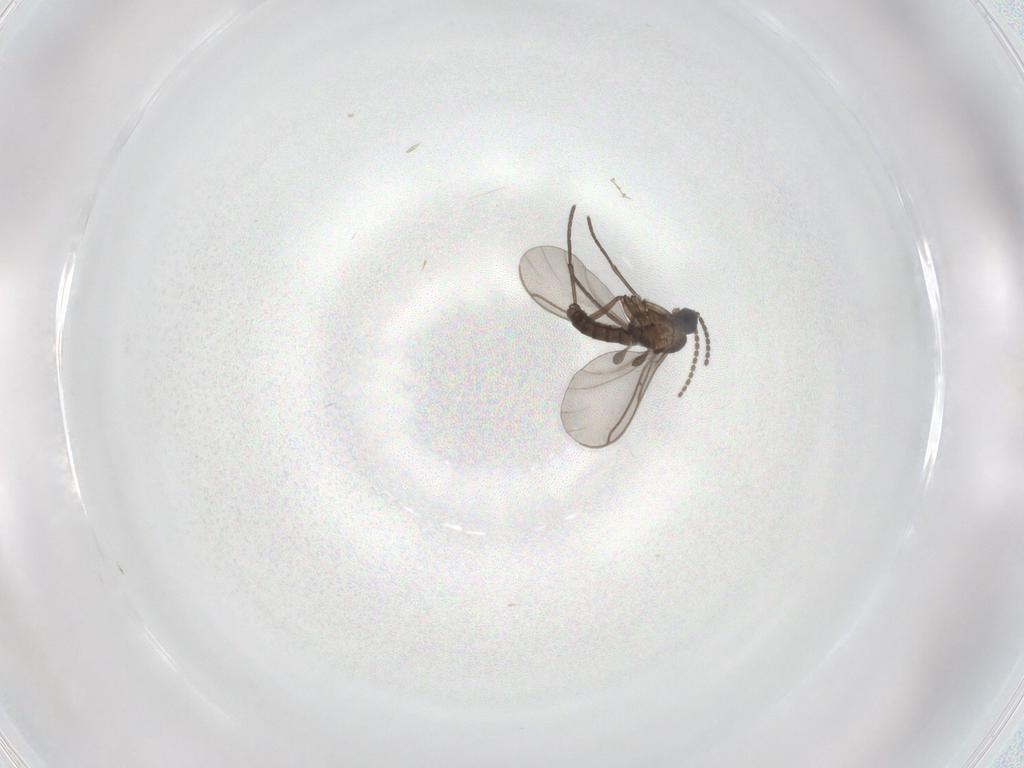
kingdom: Animalia
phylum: Arthropoda
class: Insecta
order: Diptera
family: Sciaridae
